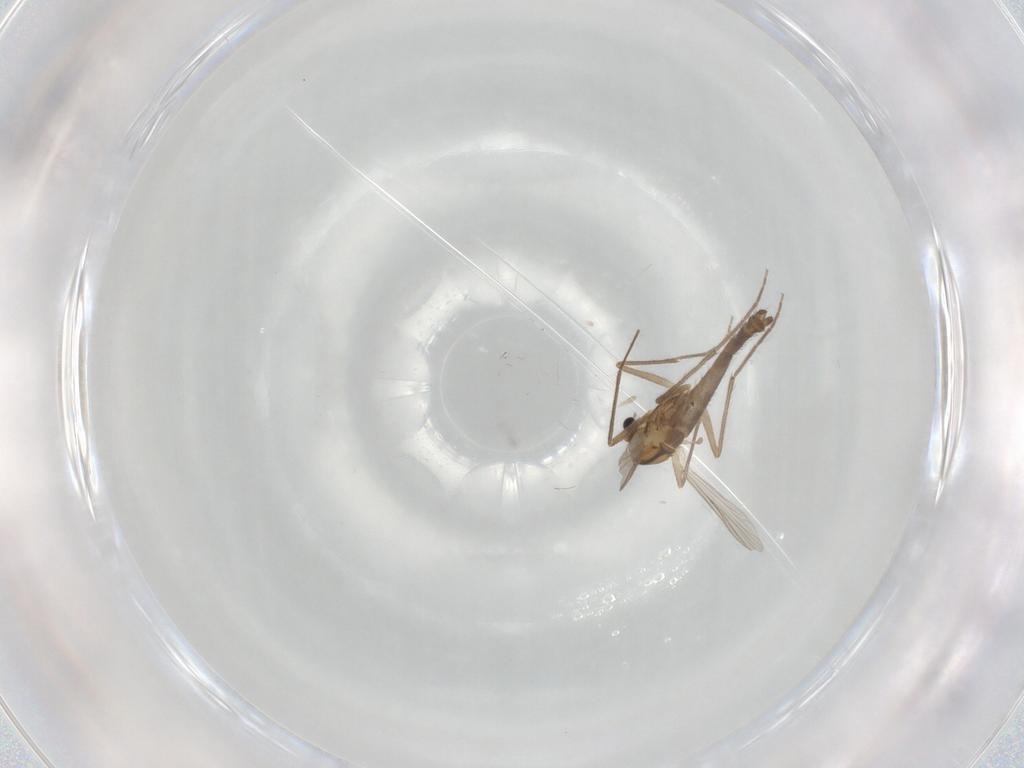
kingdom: Animalia
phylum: Arthropoda
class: Insecta
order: Diptera
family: Chironomidae
